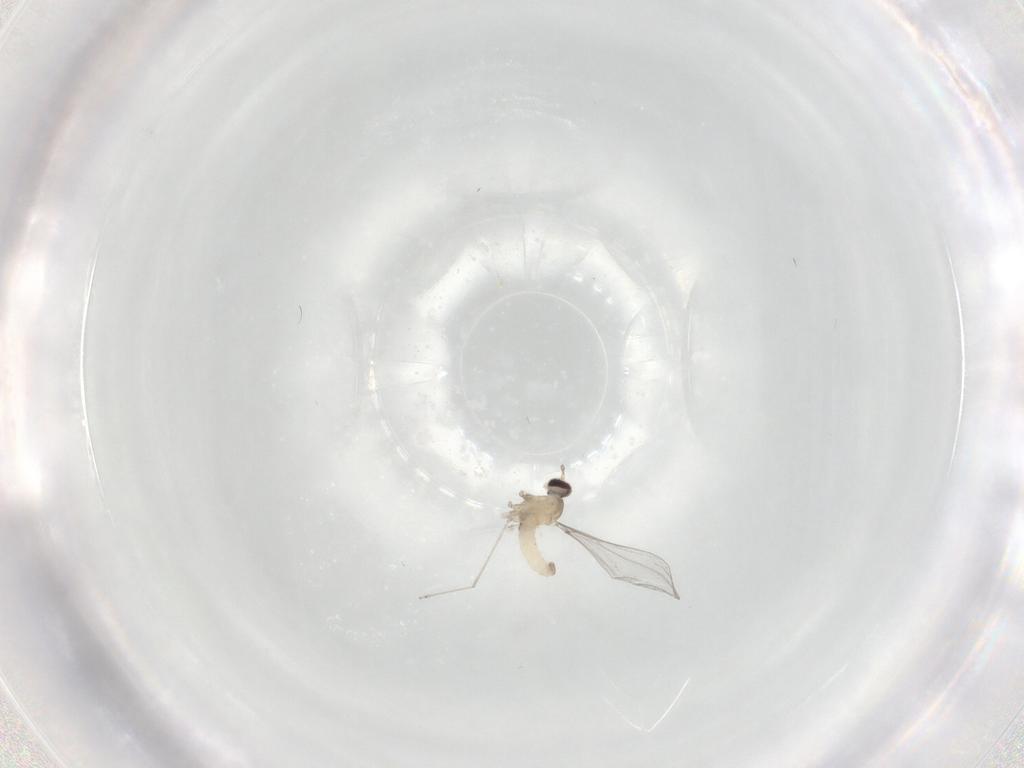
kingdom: Animalia
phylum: Arthropoda
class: Insecta
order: Diptera
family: Cecidomyiidae
